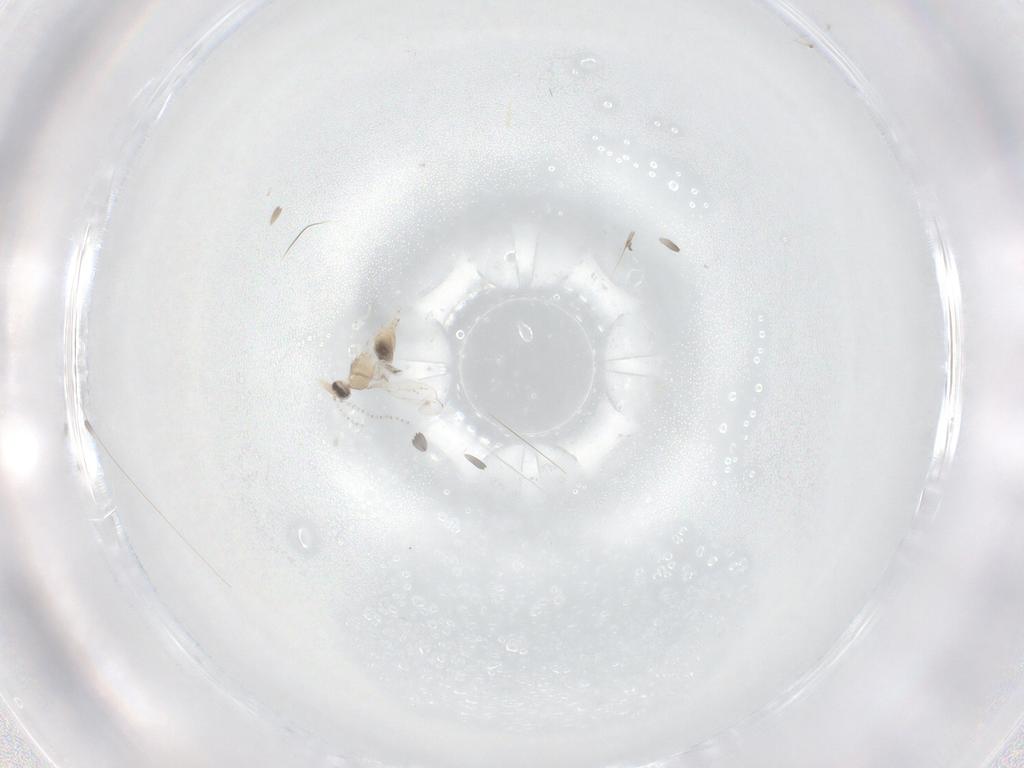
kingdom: Animalia
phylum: Arthropoda
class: Insecta
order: Diptera
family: Cecidomyiidae
